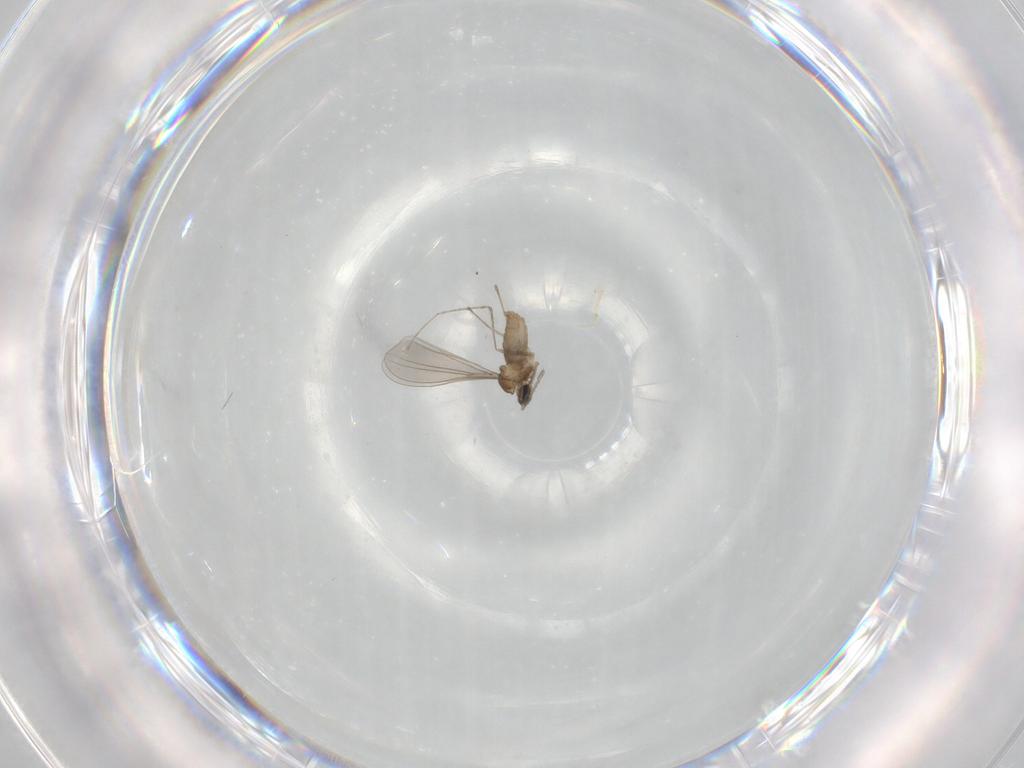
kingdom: Animalia
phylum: Arthropoda
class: Insecta
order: Diptera
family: Cecidomyiidae
